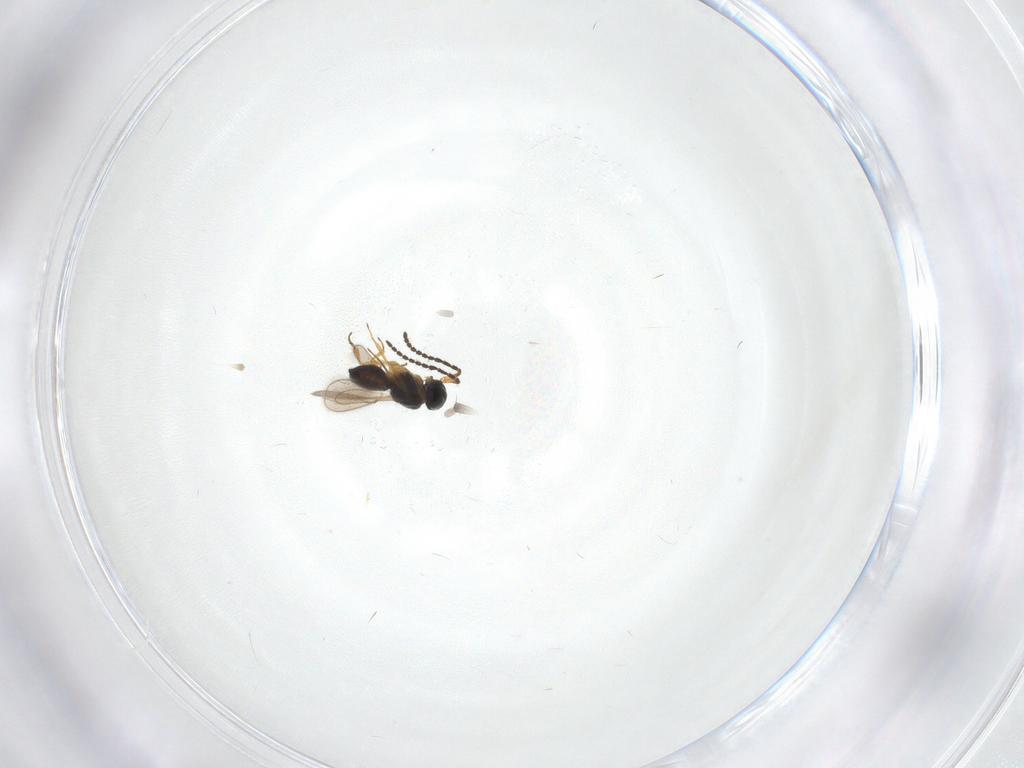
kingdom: Animalia
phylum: Arthropoda
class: Insecta
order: Hymenoptera
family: Scelionidae
